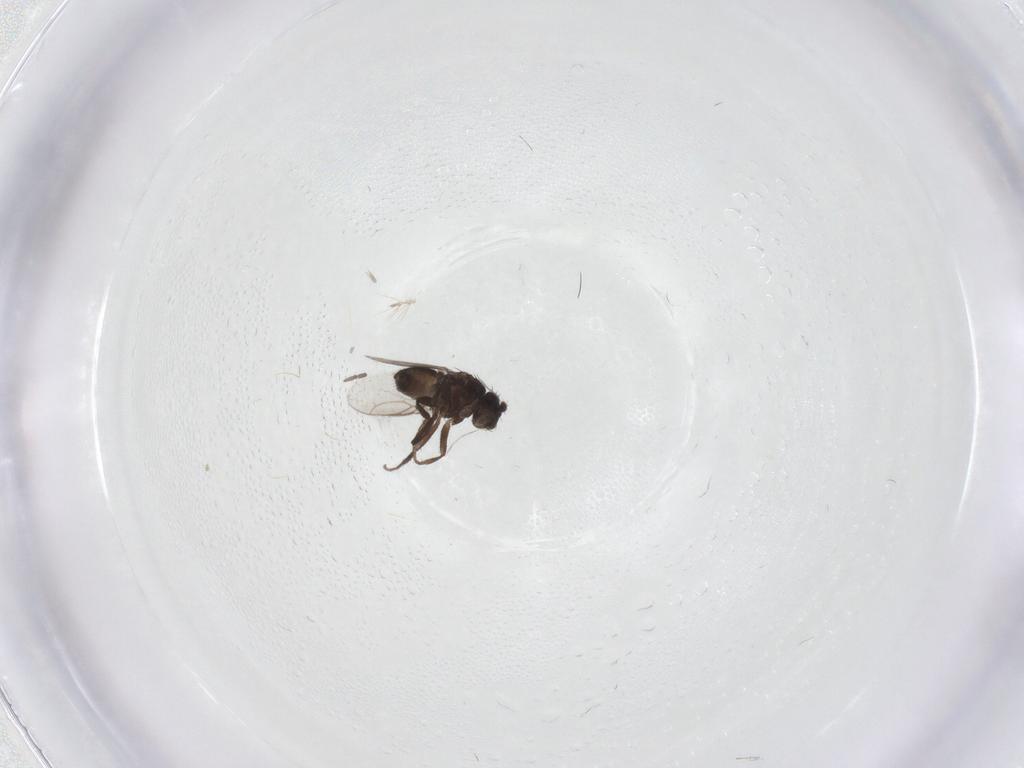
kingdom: Animalia
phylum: Arthropoda
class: Insecta
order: Diptera
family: Chironomidae
